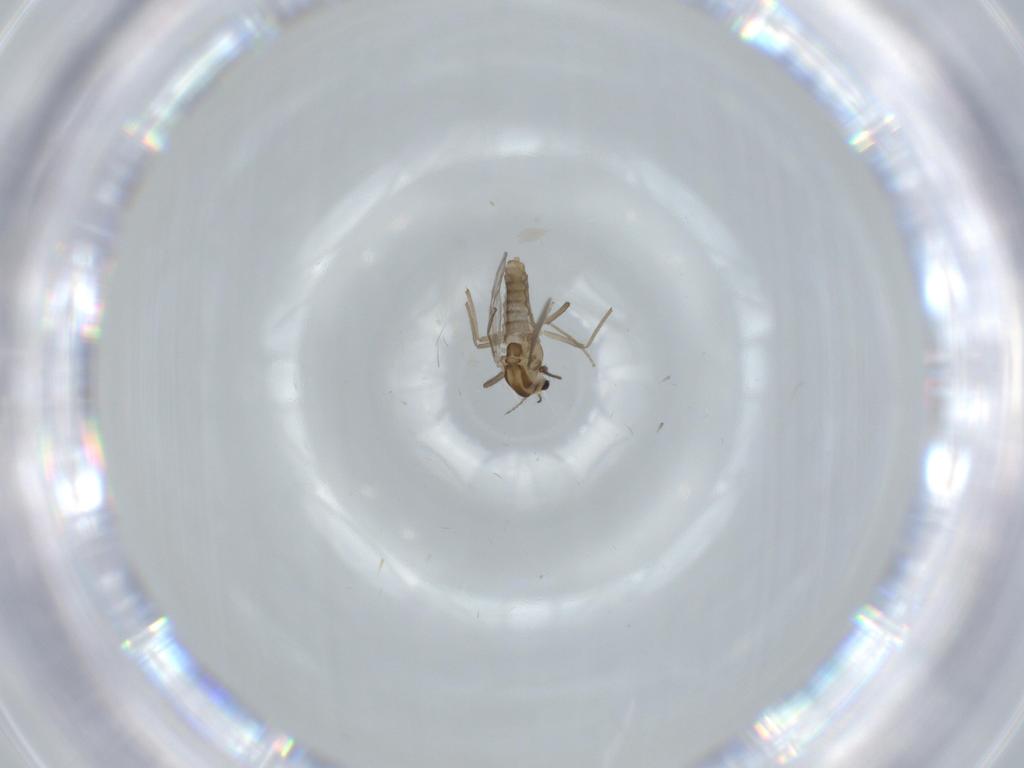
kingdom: Animalia
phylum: Arthropoda
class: Insecta
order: Diptera
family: Chironomidae
